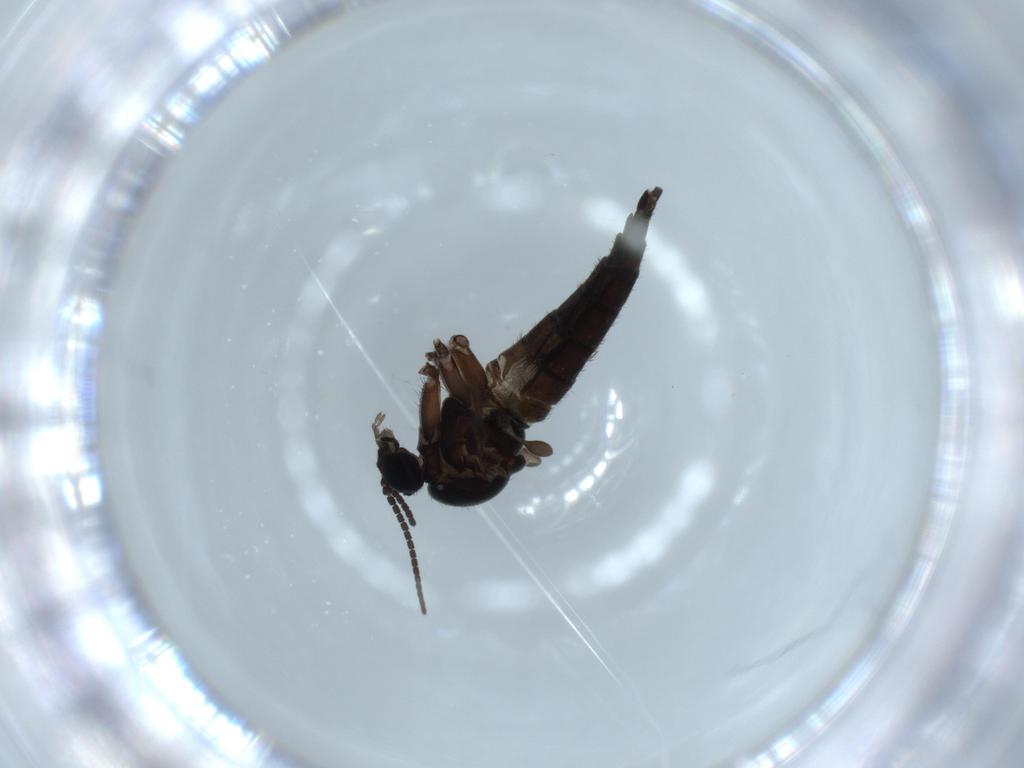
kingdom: Animalia
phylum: Arthropoda
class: Insecta
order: Diptera
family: Sciaridae
